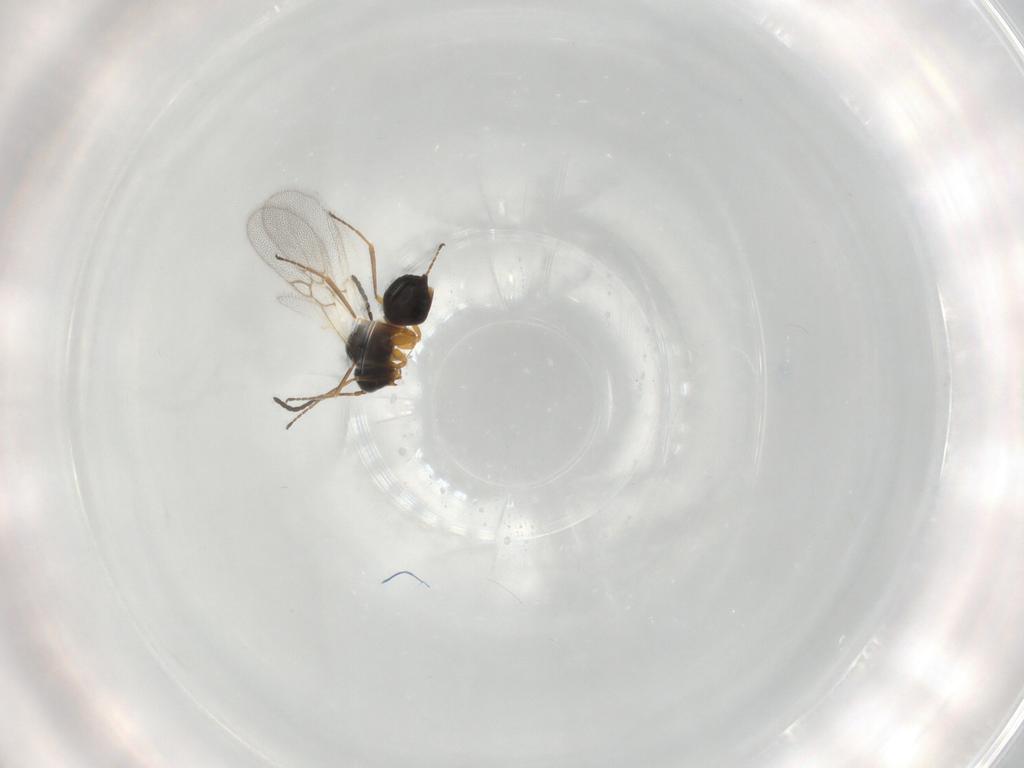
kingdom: Animalia
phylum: Arthropoda
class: Insecta
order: Hymenoptera
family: Figitidae
